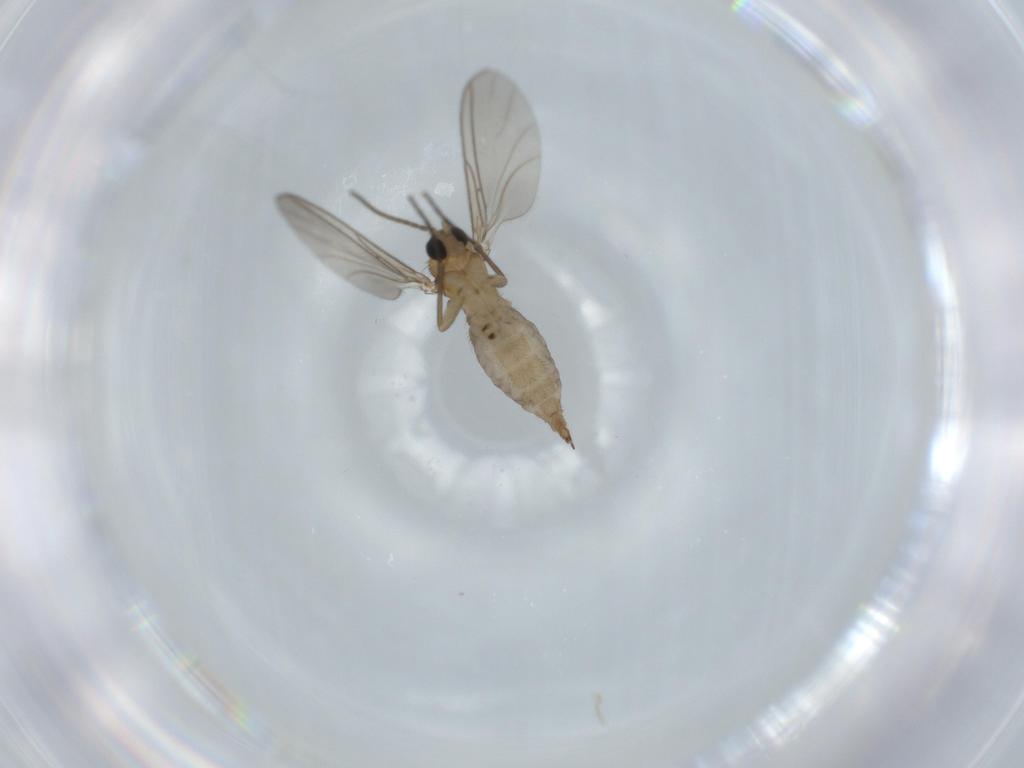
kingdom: Animalia
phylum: Arthropoda
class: Insecta
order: Diptera
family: Sciaridae
